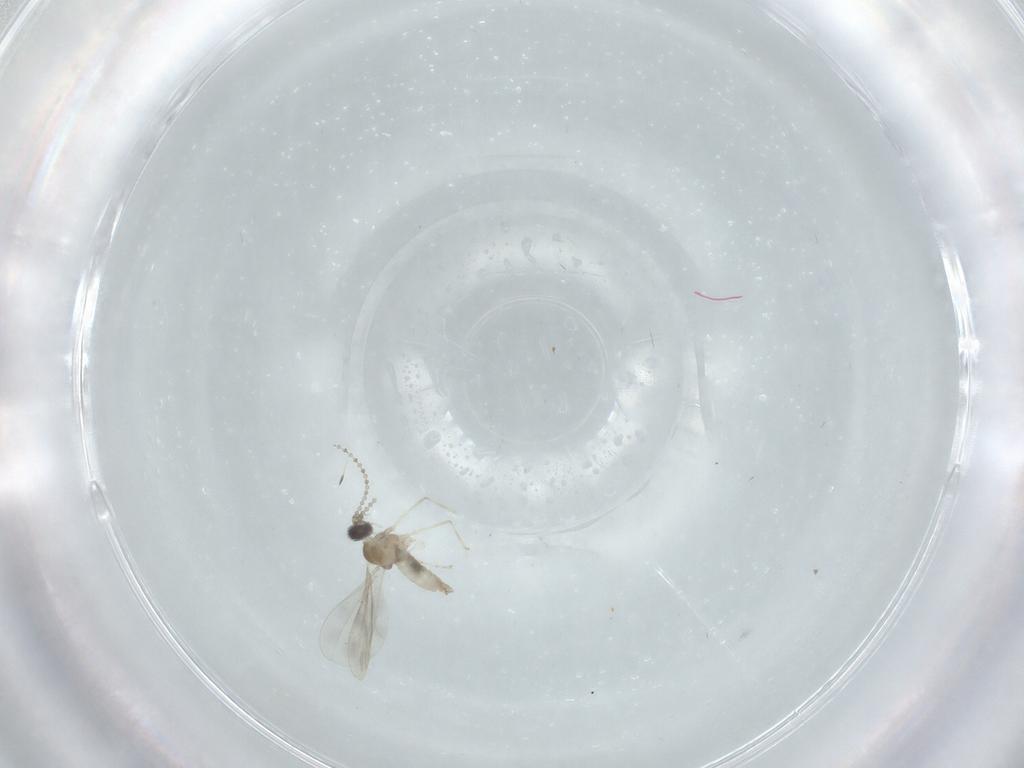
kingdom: Animalia
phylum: Arthropoda
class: Insecta
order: Diptera
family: Cecidomyiidae
